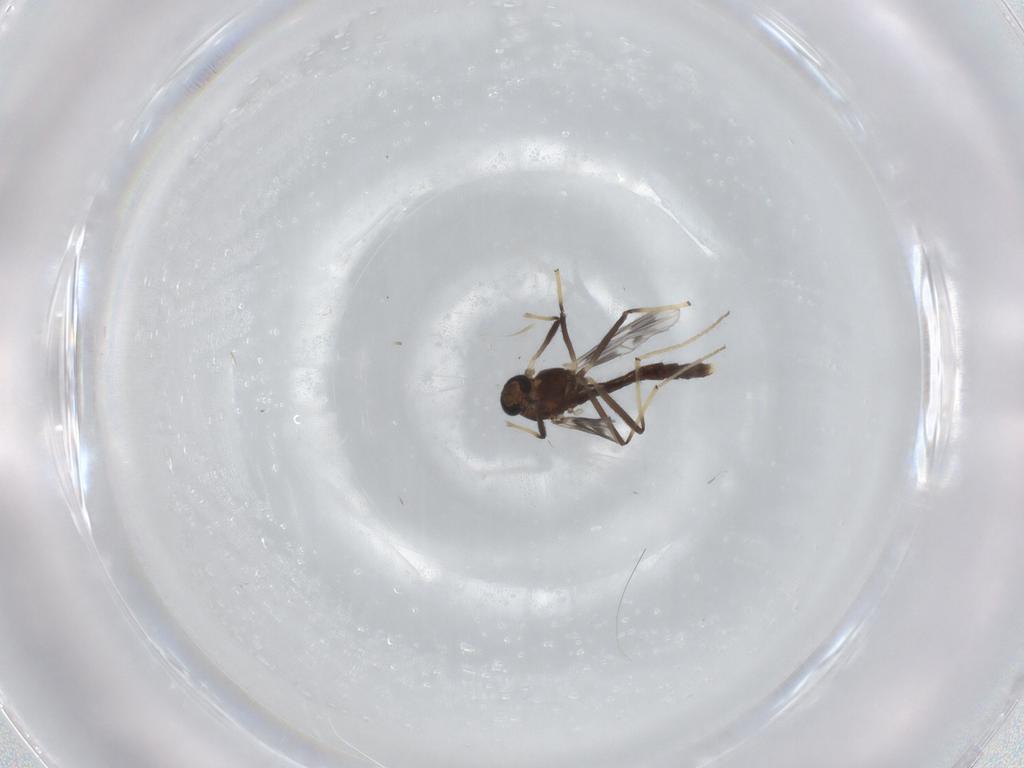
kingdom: Animalia
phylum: Arthropoda
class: Insecta
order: Diptera
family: Chironomidae
